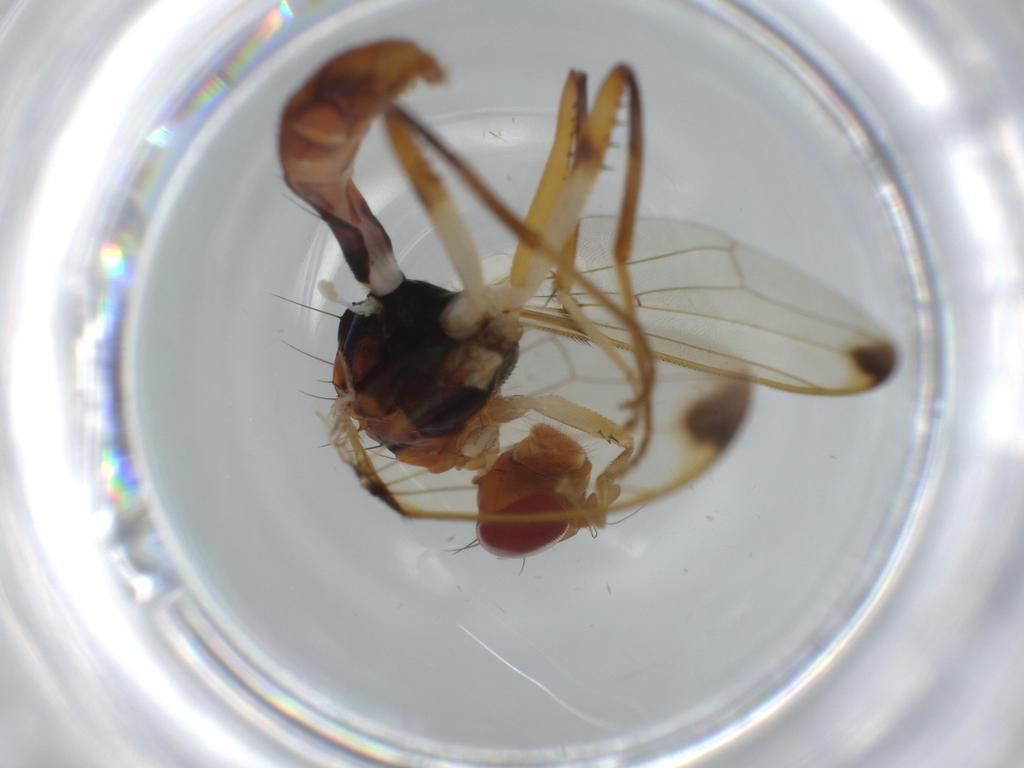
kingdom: Animalia
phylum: Arthropoda
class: Insecta
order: Diptera
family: Richardiidae
